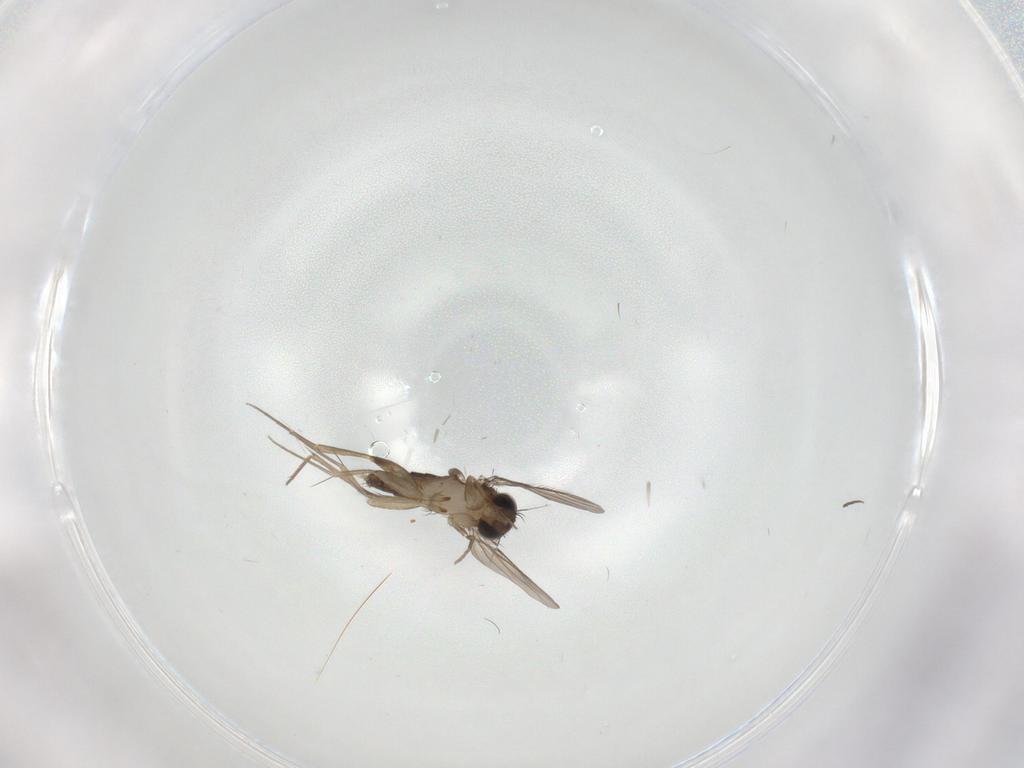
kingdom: Animalia
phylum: Arthropoda
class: Insecta
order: Diptera
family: Phoridae
